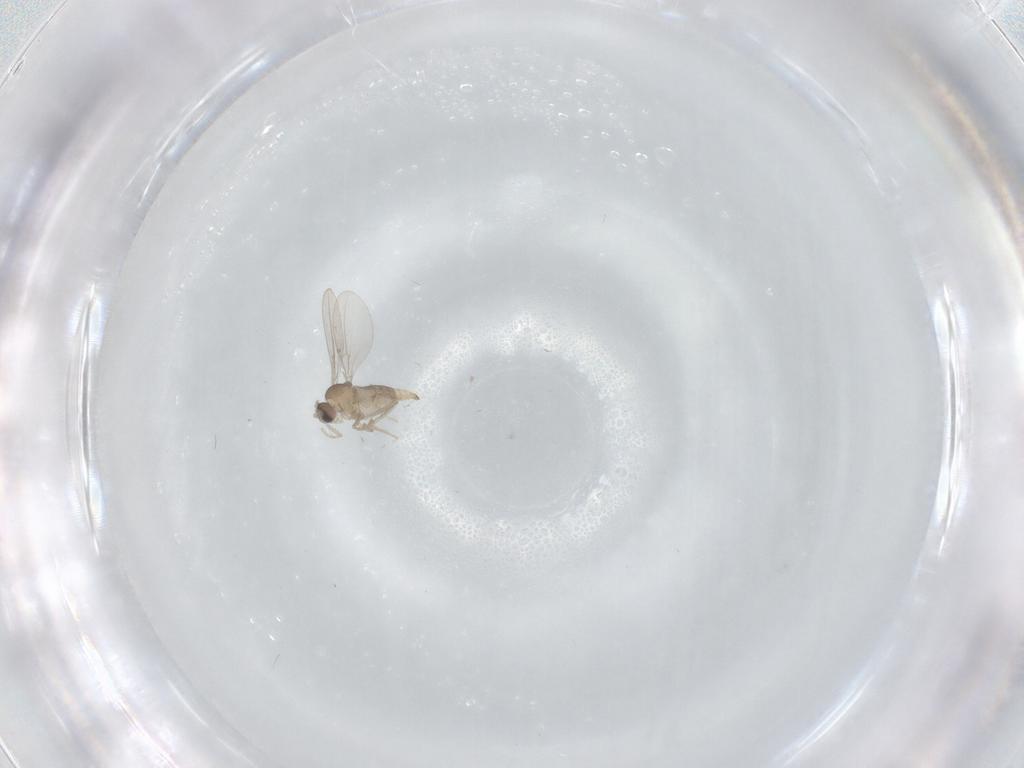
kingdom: Animalia
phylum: Arthropoda
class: Insecta
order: Diptera
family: Cecidomyiidae
